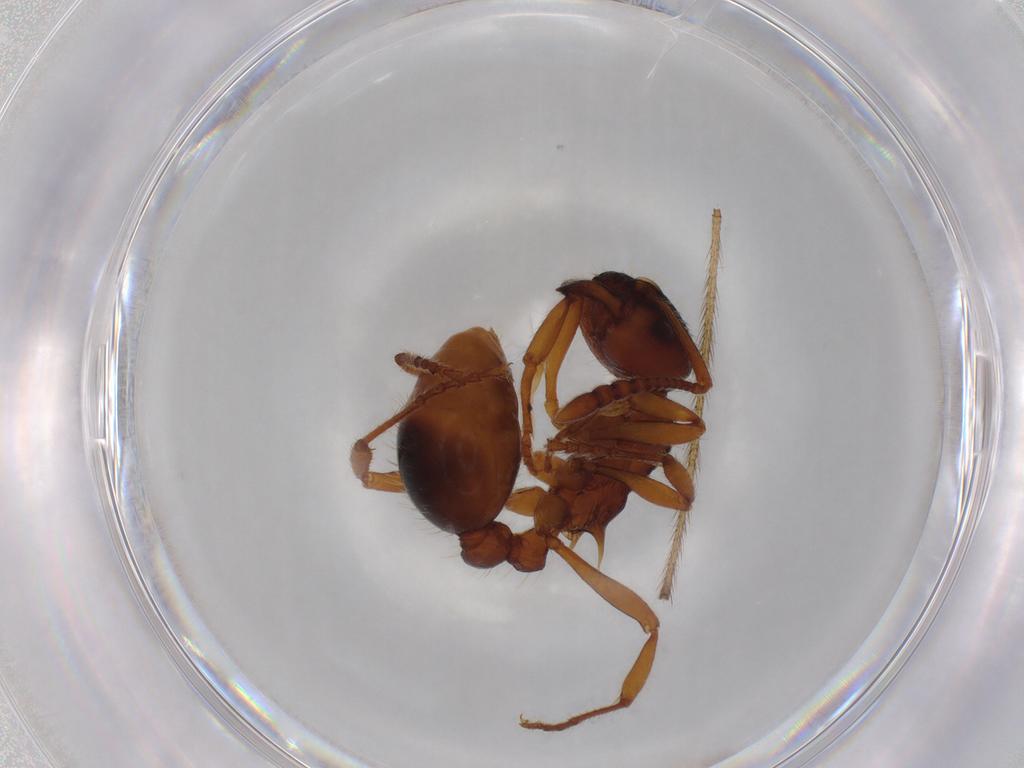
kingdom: Animalia
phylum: Arthropoda
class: Insecta
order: Hymenoptera
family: Formicidae
